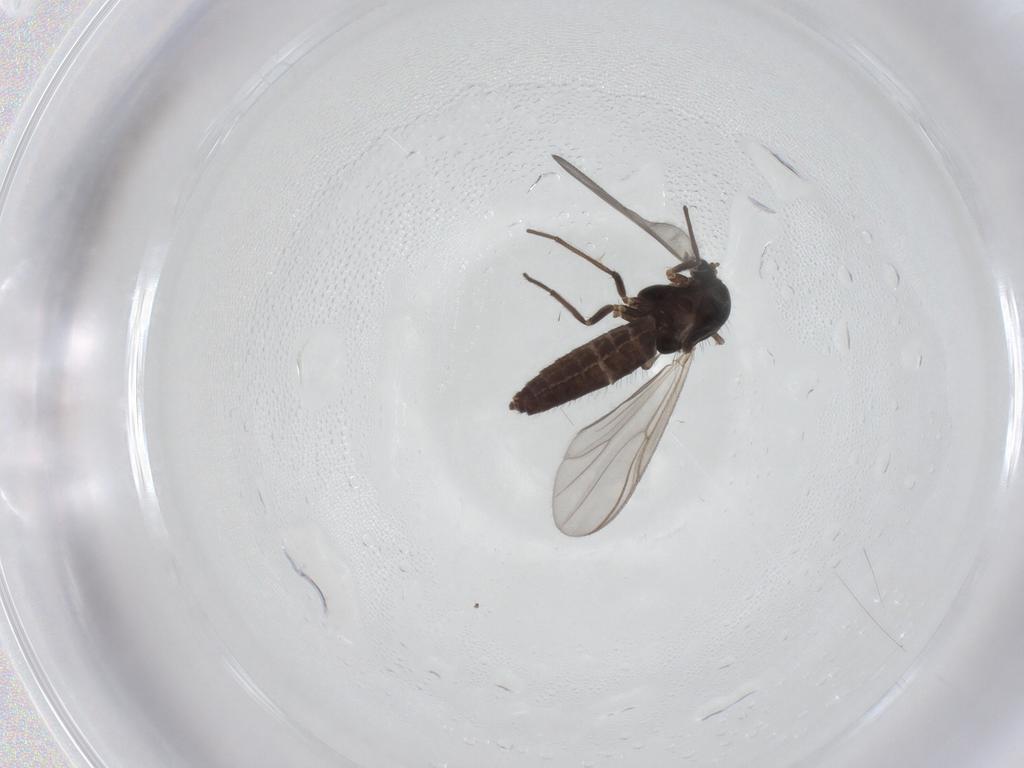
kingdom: Animalia
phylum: Arthropoda
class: Insecta
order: Diptera
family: Chironomidae
